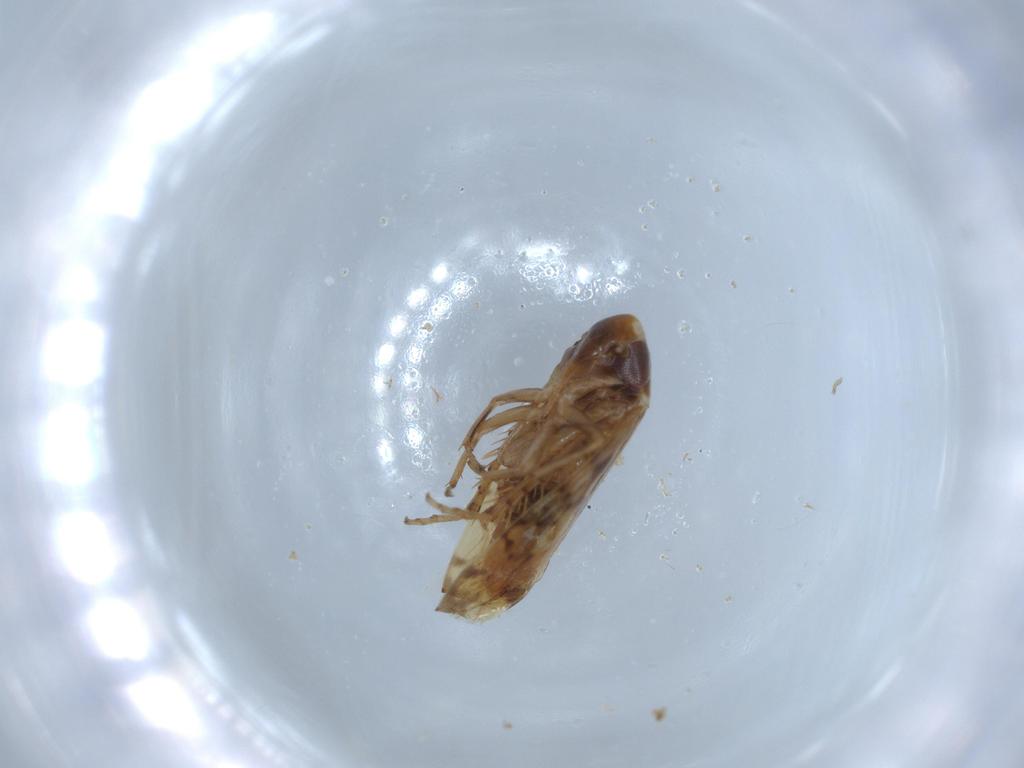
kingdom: Animalia
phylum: Arthropoda
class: Insecta
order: Hemiptera
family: Cicadellidae
